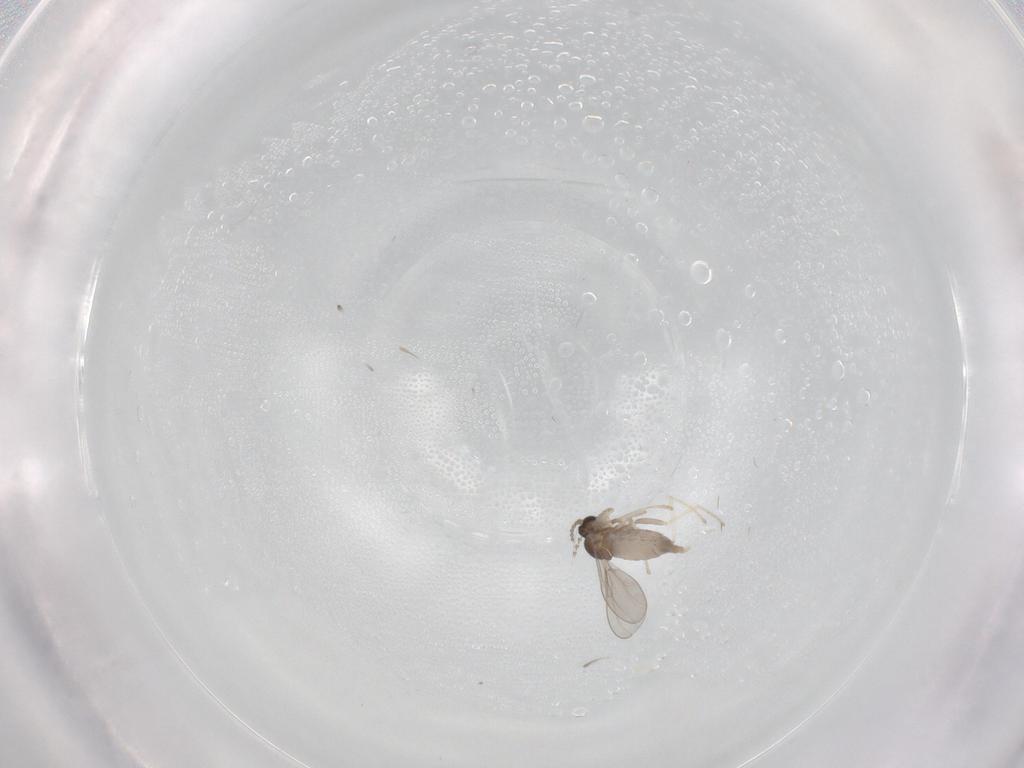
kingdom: Animalia
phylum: Arthropoda
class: Insecta
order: Diptera
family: Cecidomyiidae
